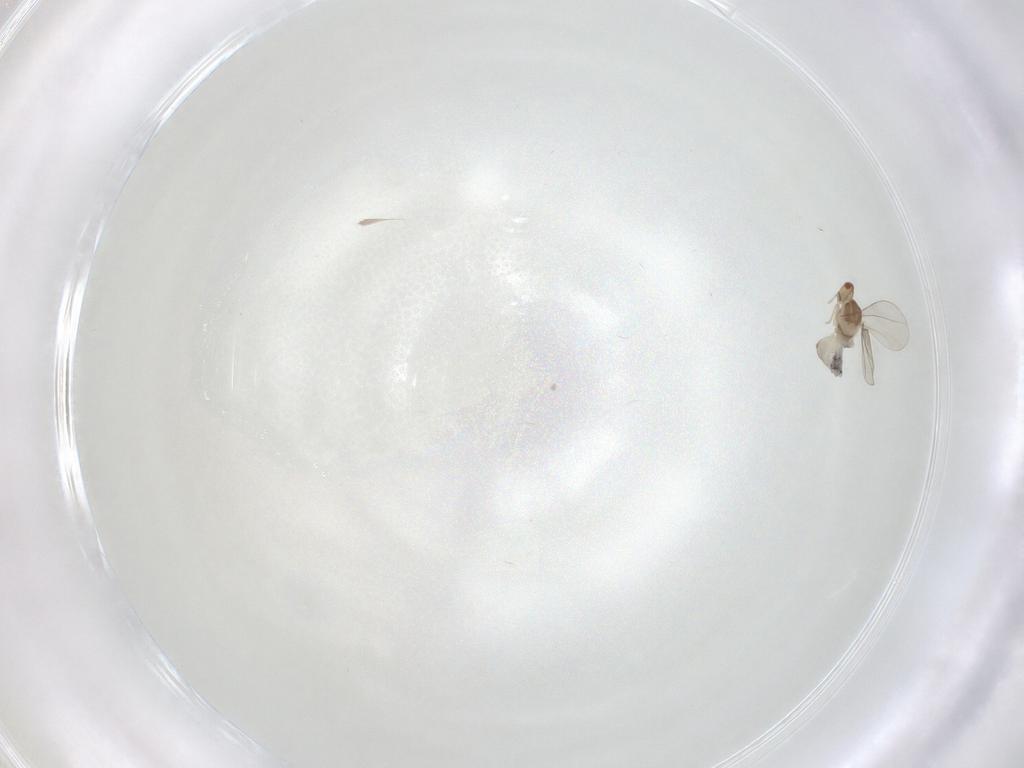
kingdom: Animalia
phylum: Arthropoda
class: Insecta
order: Diptera
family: Cecidomyiidae
